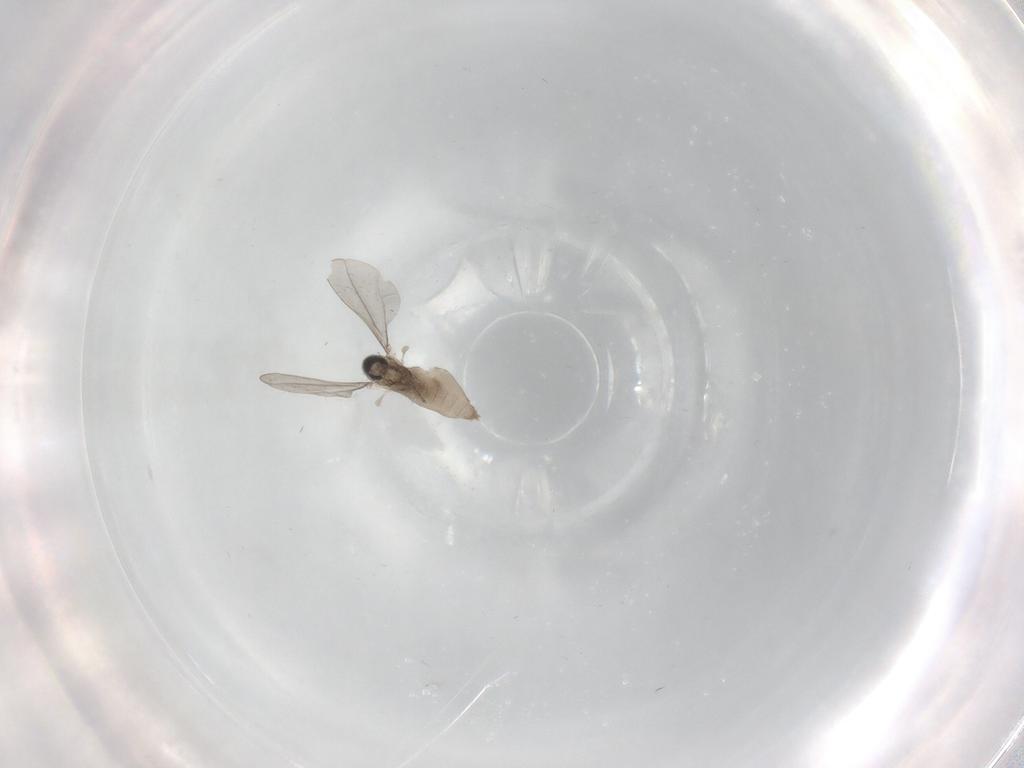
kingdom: Animalia
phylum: Arthropoda
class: Insecta
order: Diptera
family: Cecidomyiidae
